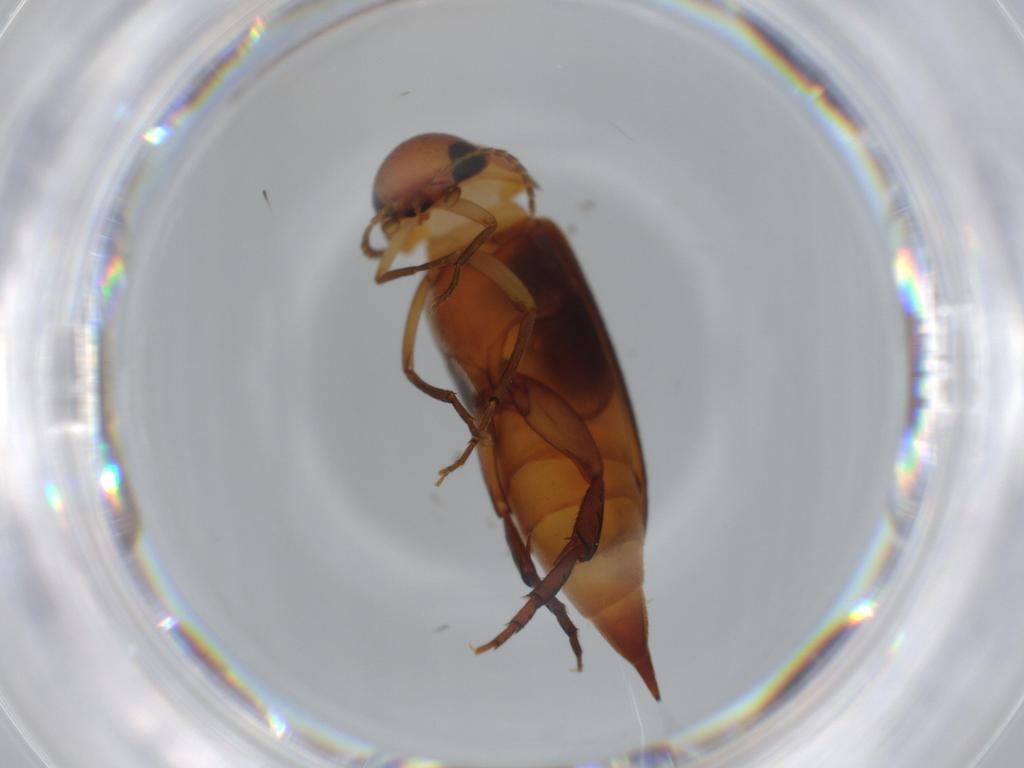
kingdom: Animalia
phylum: Arthropoda
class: Insecta
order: Coleoptera
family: Mordellidae
